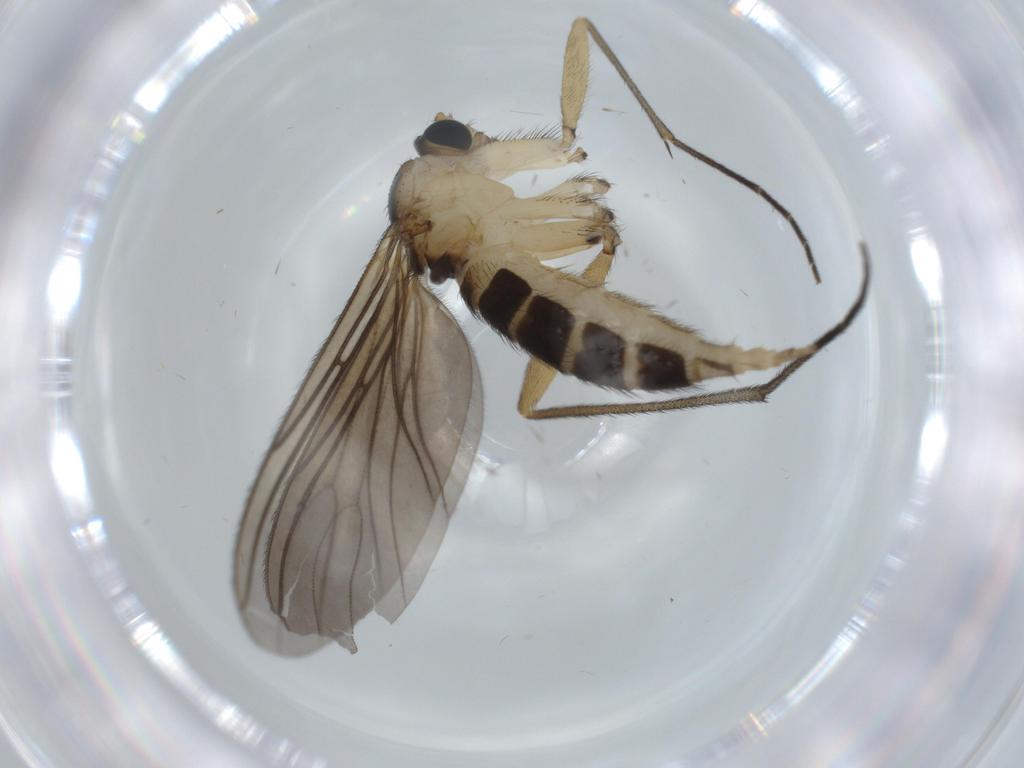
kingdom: Animalia
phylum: Arthropoda
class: Insecta
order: Diptera
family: Sciaridae
